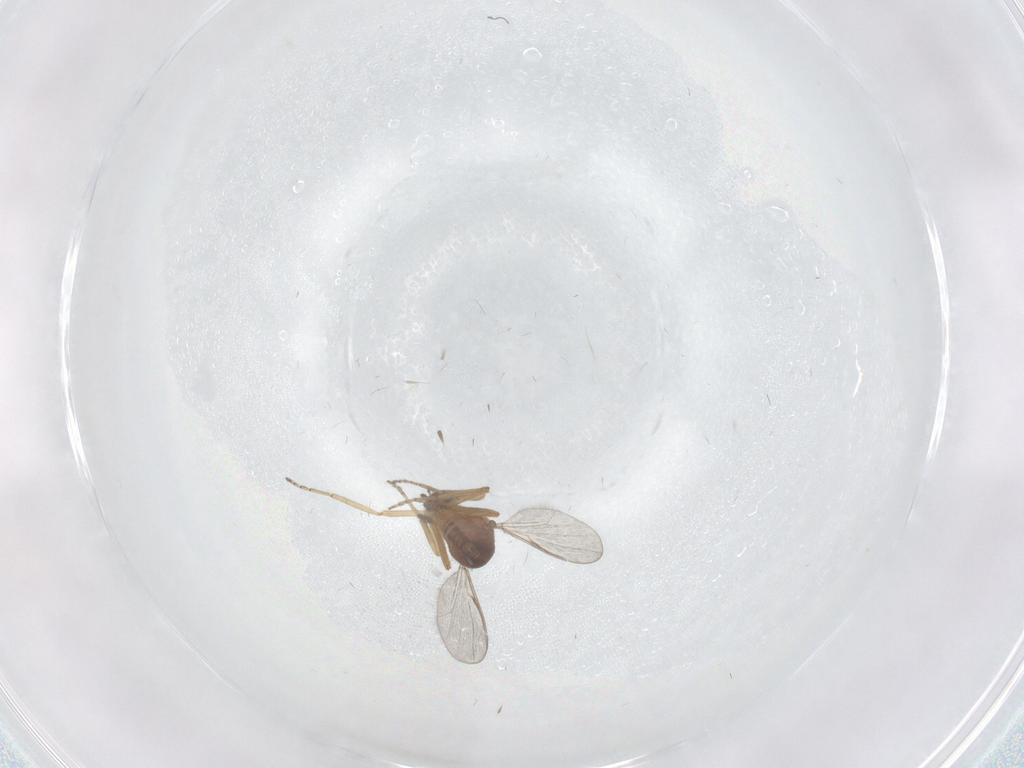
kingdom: Animalia
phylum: Arthropoda
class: Insecta
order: Diptera
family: Ceratopogonidae
